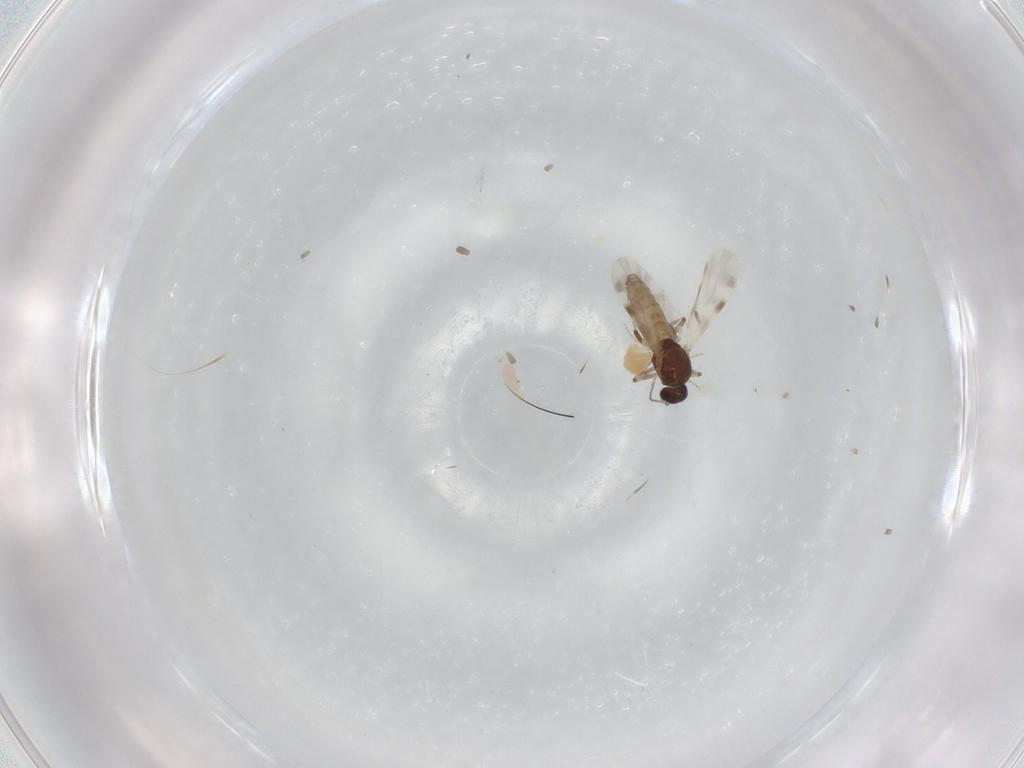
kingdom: Animalia
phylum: Arthropoda
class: Insecta
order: Diptera
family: Ceratopogonidae
